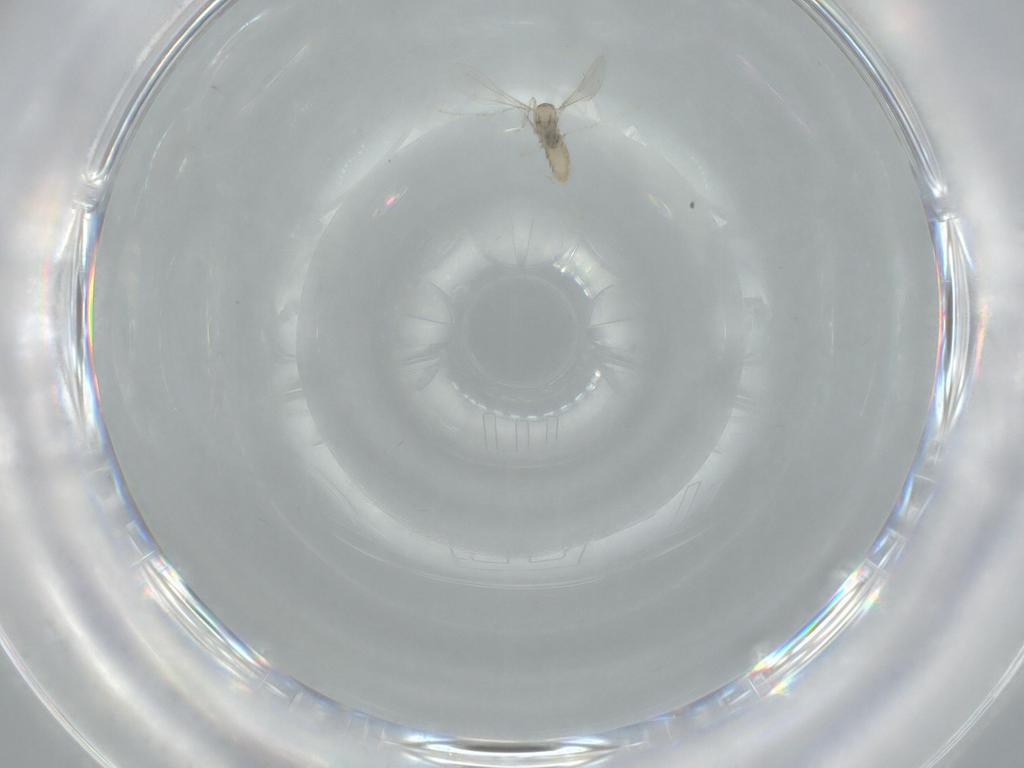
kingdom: Animalia
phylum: Arthropoda
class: Insecta
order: Diptera
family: Cecidomyiidae
